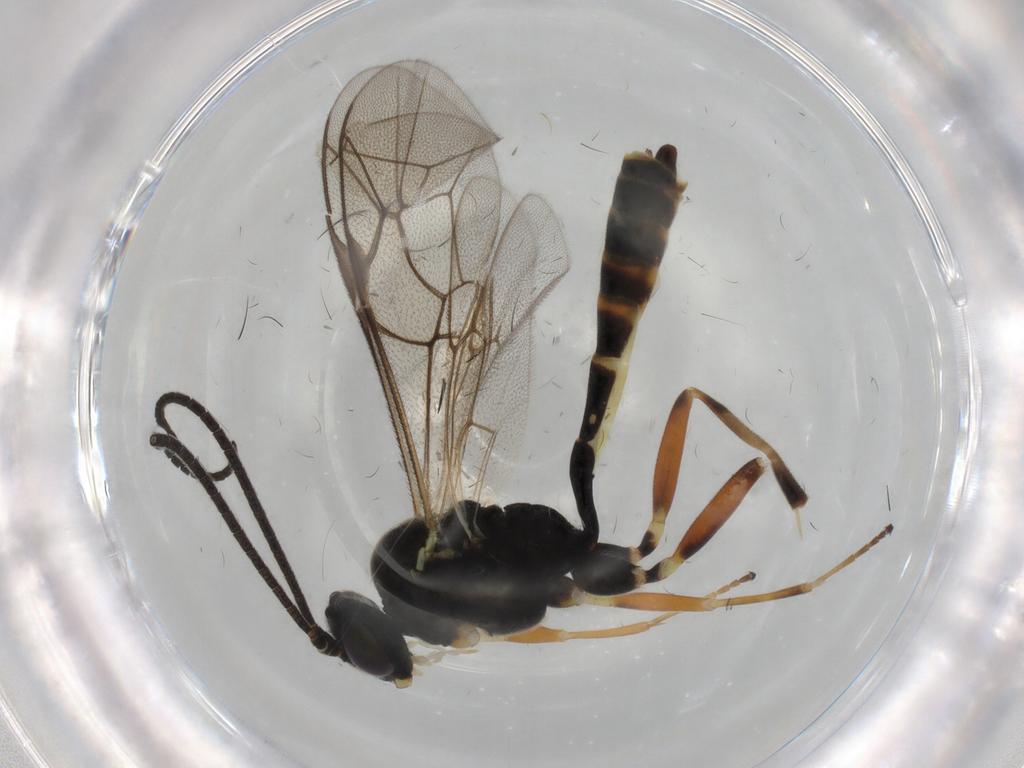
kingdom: Animalia
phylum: Arthropoda
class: Insecta
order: Hymenoptera
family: Ichneumonidae
